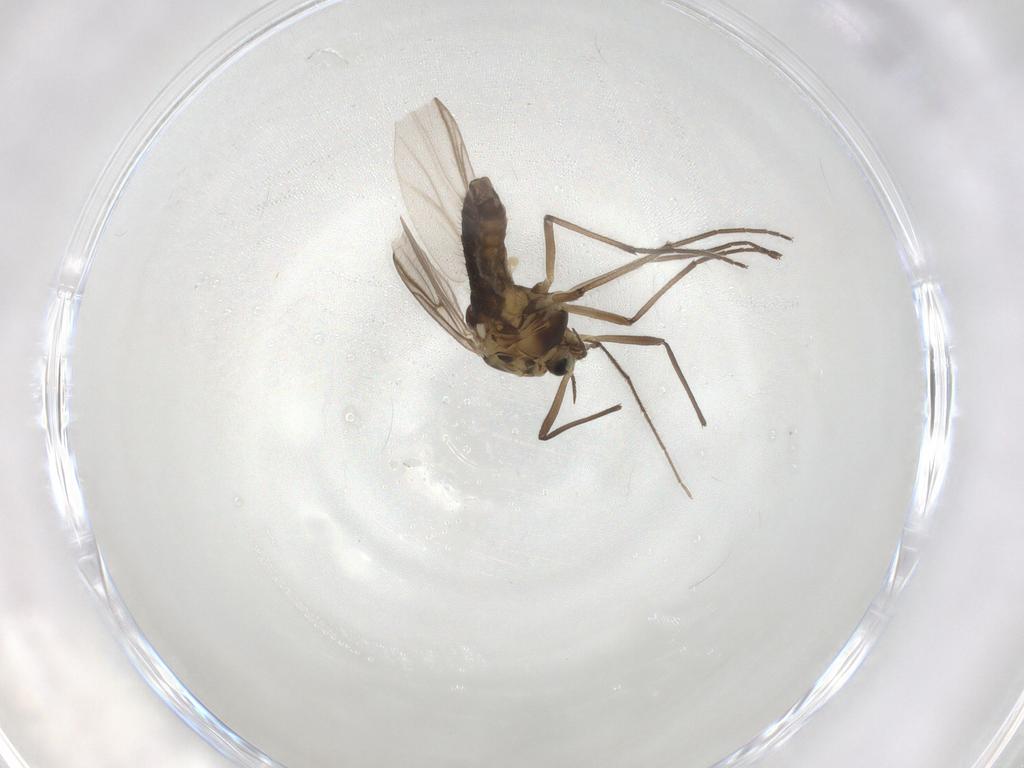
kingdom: Animalia
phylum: Arthropoda
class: Insecta
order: Diptera
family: Chironomidae
